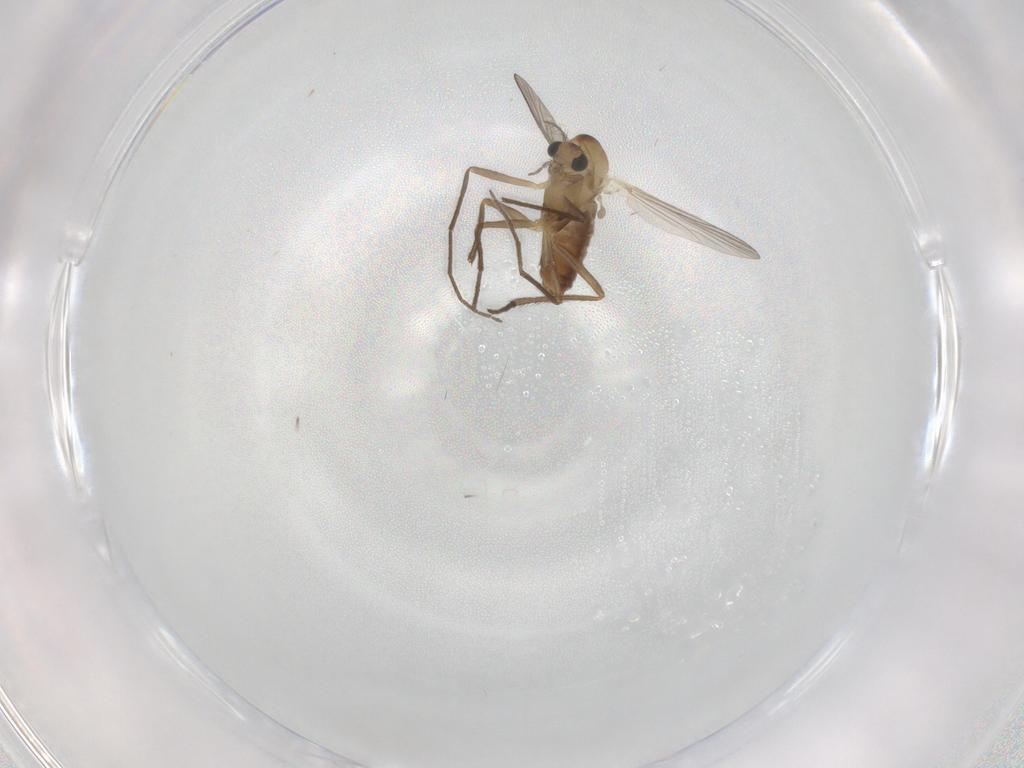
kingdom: Animalia
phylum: Arthropoda
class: Insecta
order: Diptera
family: Chironomidae
